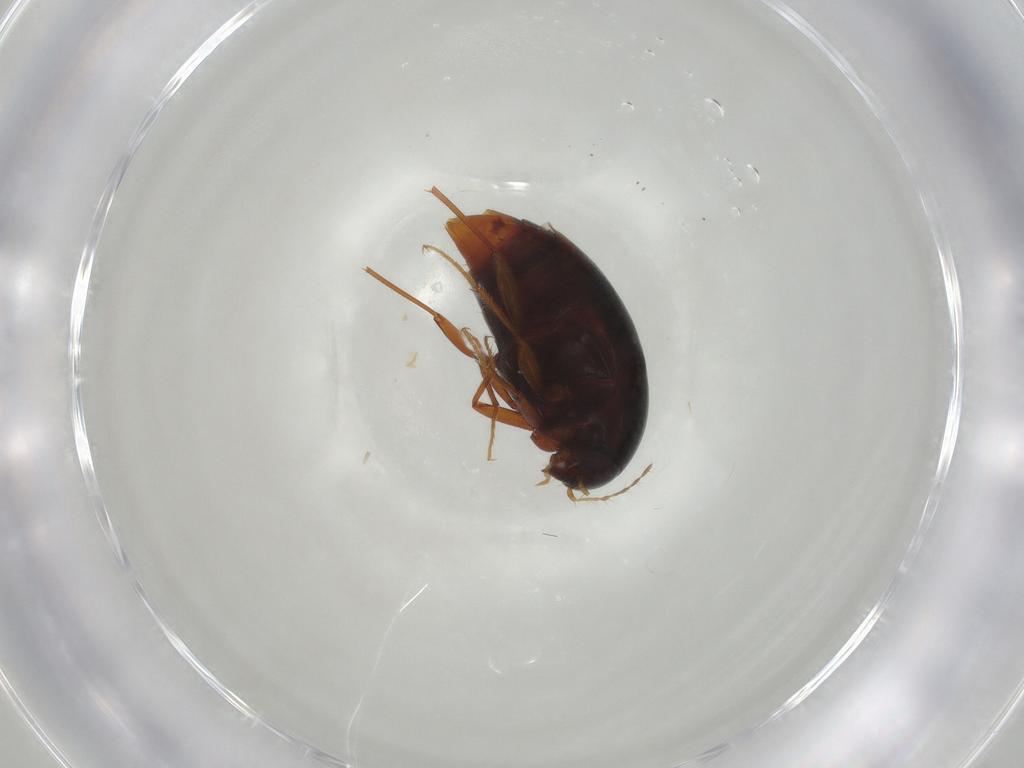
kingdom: Animalia
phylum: Arthropoda
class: Insecta
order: Coleoptera
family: Staphylinidae
